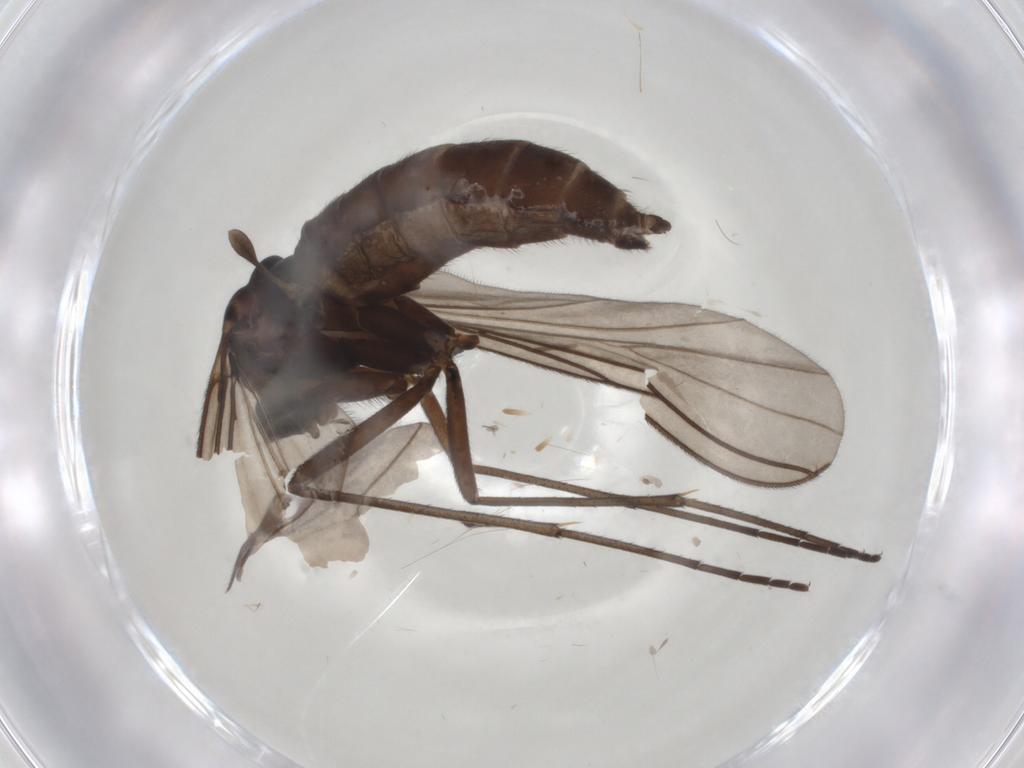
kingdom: Animalia
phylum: Arthropoda
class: Insecta
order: Diptera
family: Sciaridae
